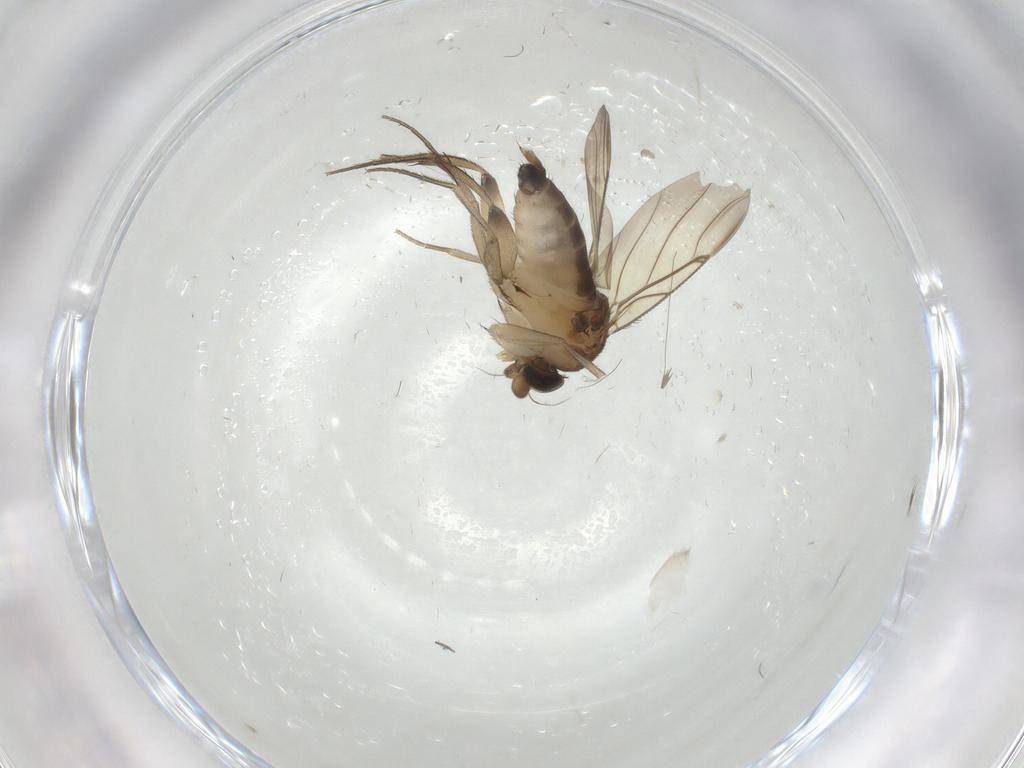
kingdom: Animalia
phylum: Arthropoda
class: Insecta
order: Diptera
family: Phoridae
